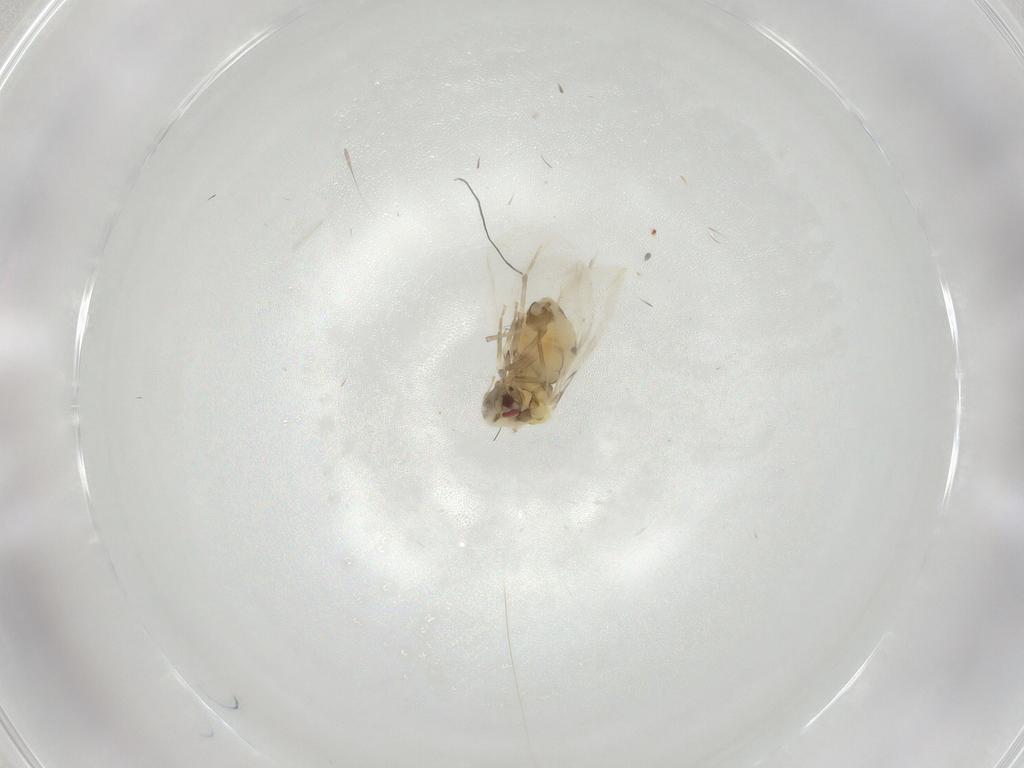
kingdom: Animalia
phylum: Arthropoda
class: Insecta
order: Hemiptera
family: Aleyrodidae
